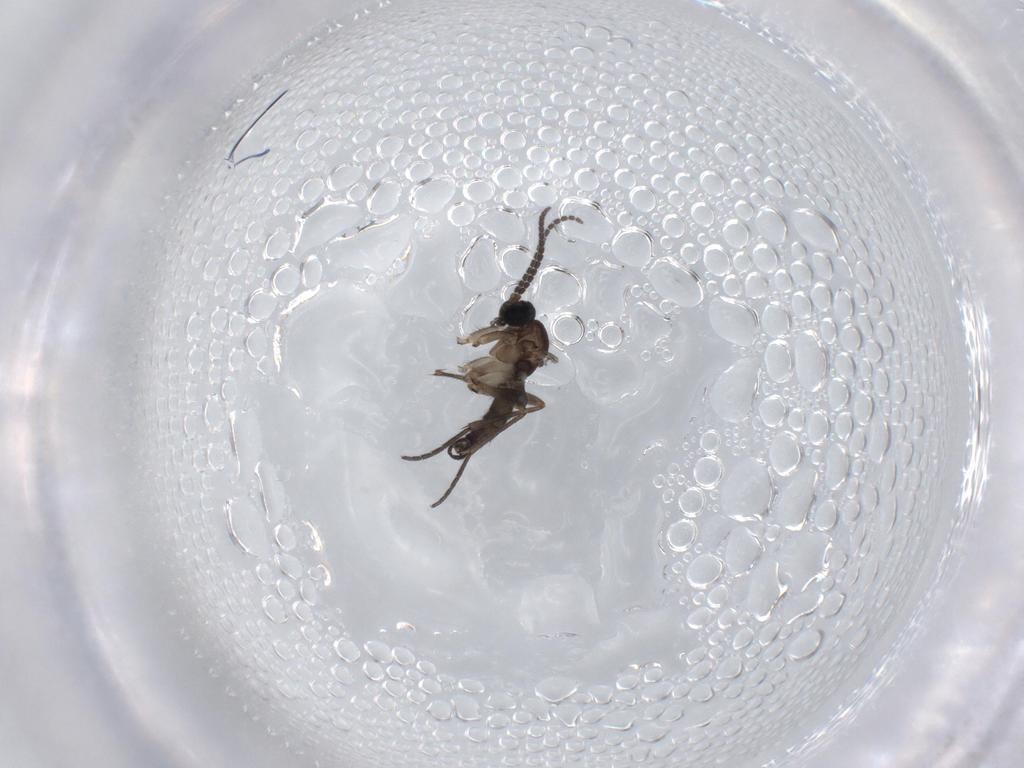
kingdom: Animalia
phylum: Arthropoda
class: Insecta
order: Diptera
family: Sciaridae
